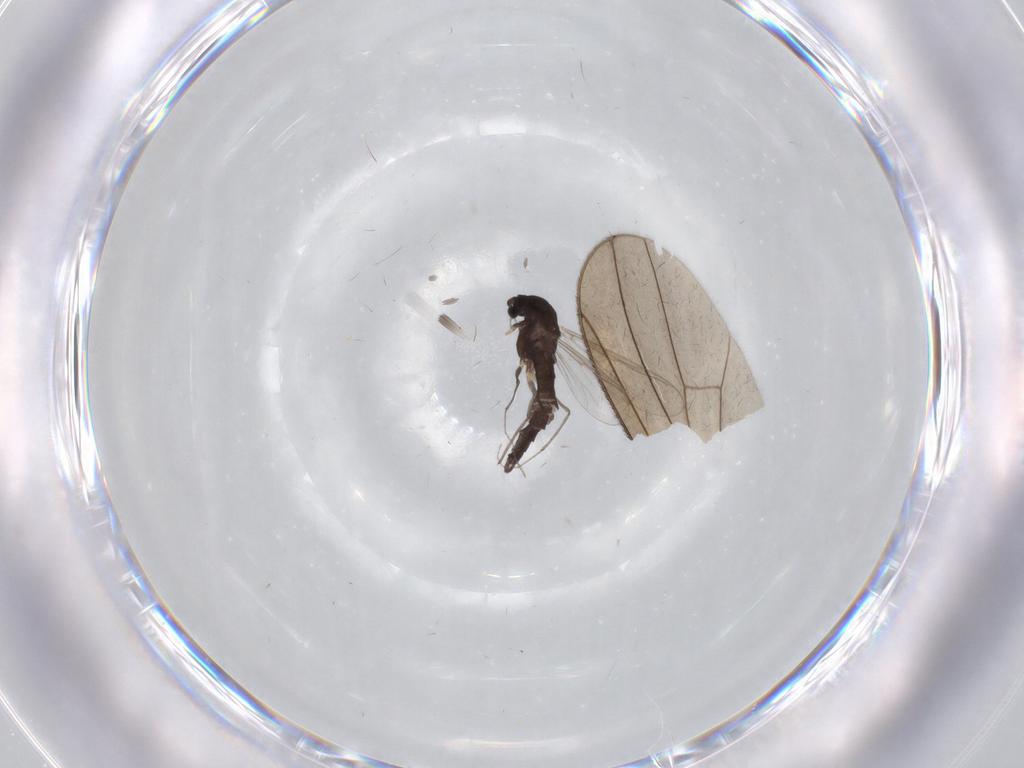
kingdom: Animalia
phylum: Arthropoda
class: Insecta
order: Diptera
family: Chironomidae
